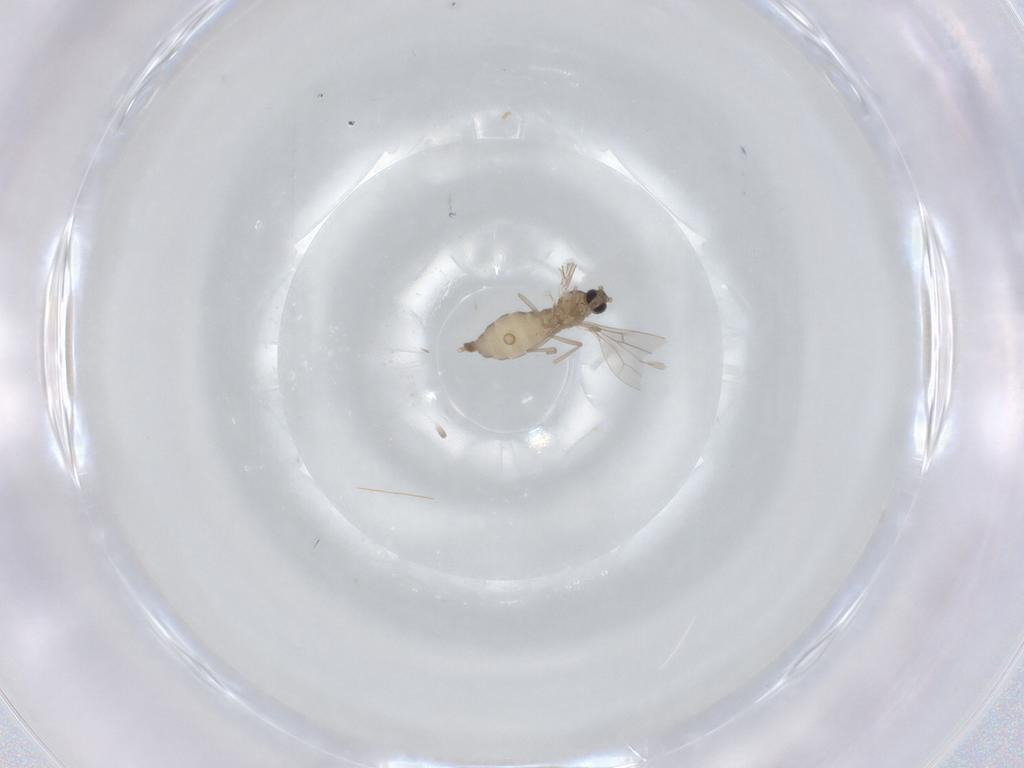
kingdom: Animalia
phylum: Arthropoda
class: Insecta
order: Diptera
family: Cecidomyiidae
